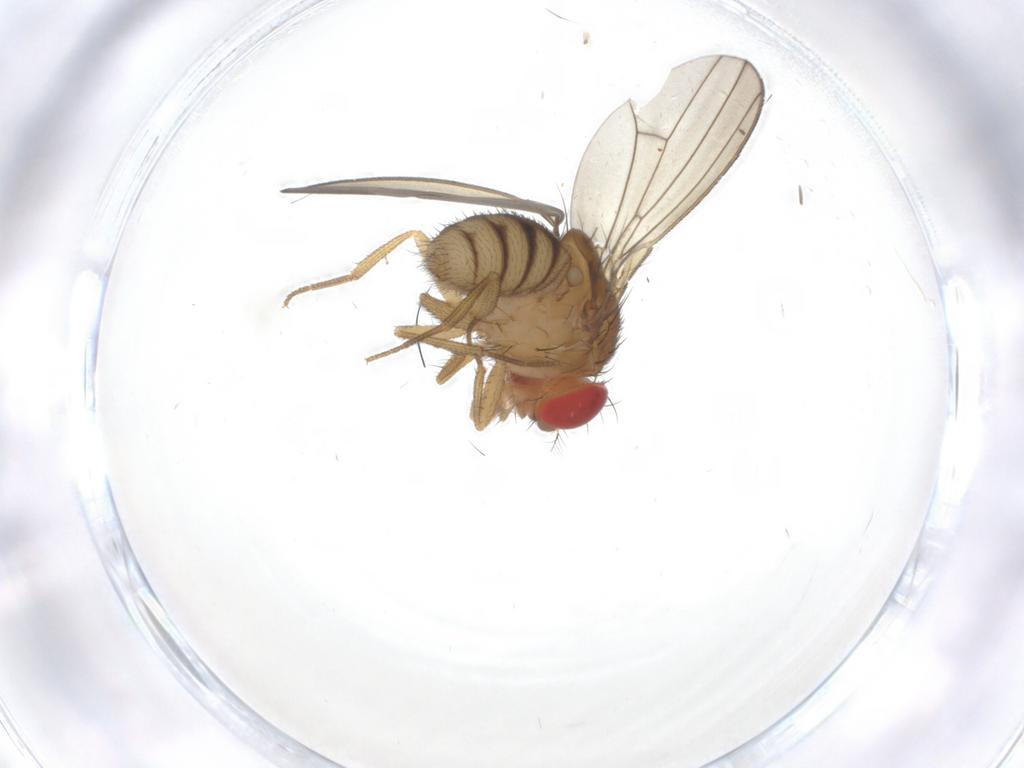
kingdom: Animalia
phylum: Arthropoda
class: Insecta
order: Diptera
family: Drosophilidae
